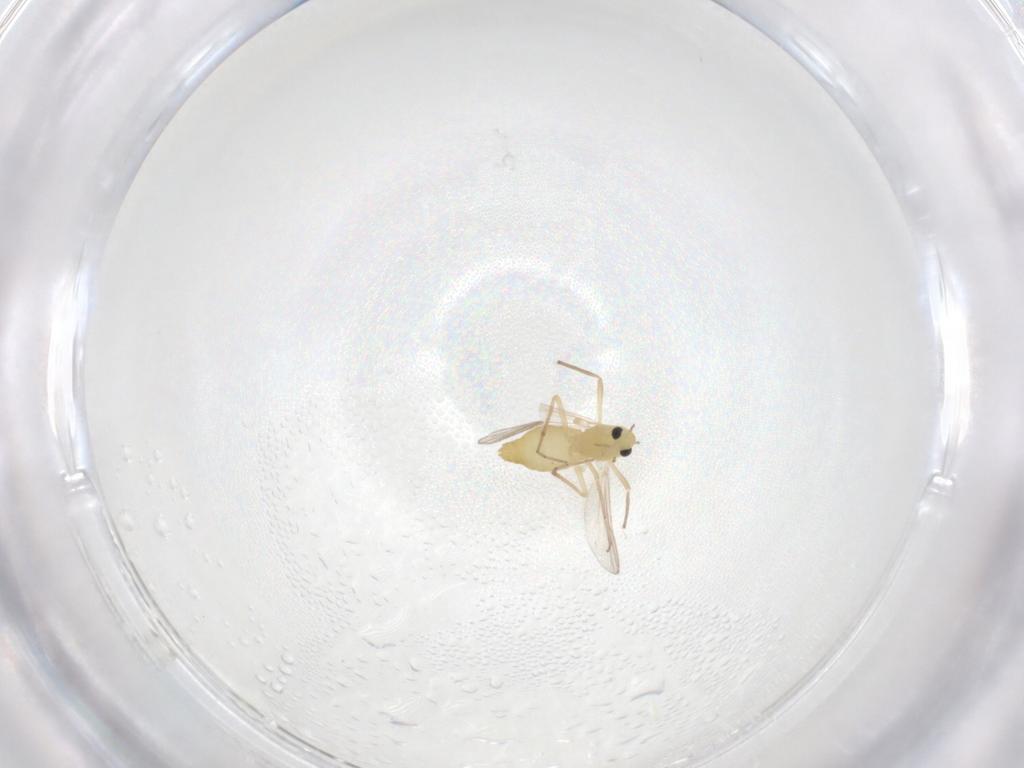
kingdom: Animalia
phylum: Arthropoda
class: Insecta
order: Diptera
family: Chironomidae
